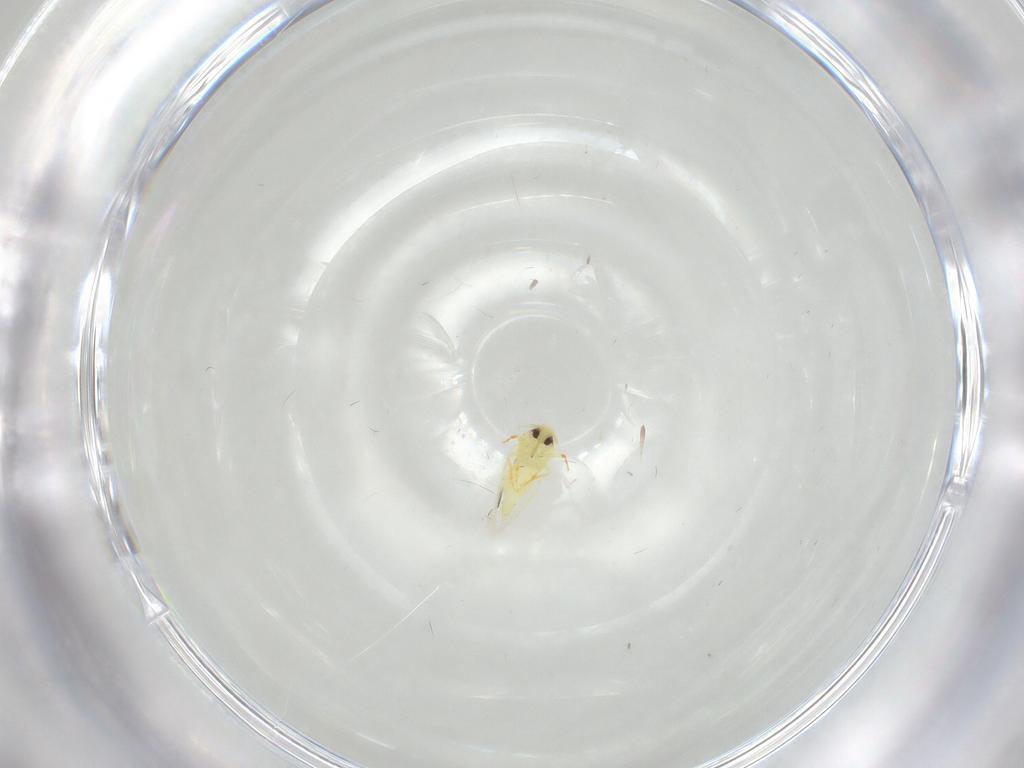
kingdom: Animalia
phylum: Arthropoda
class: Insecta
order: Hemiptera
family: Aleyrodidae
